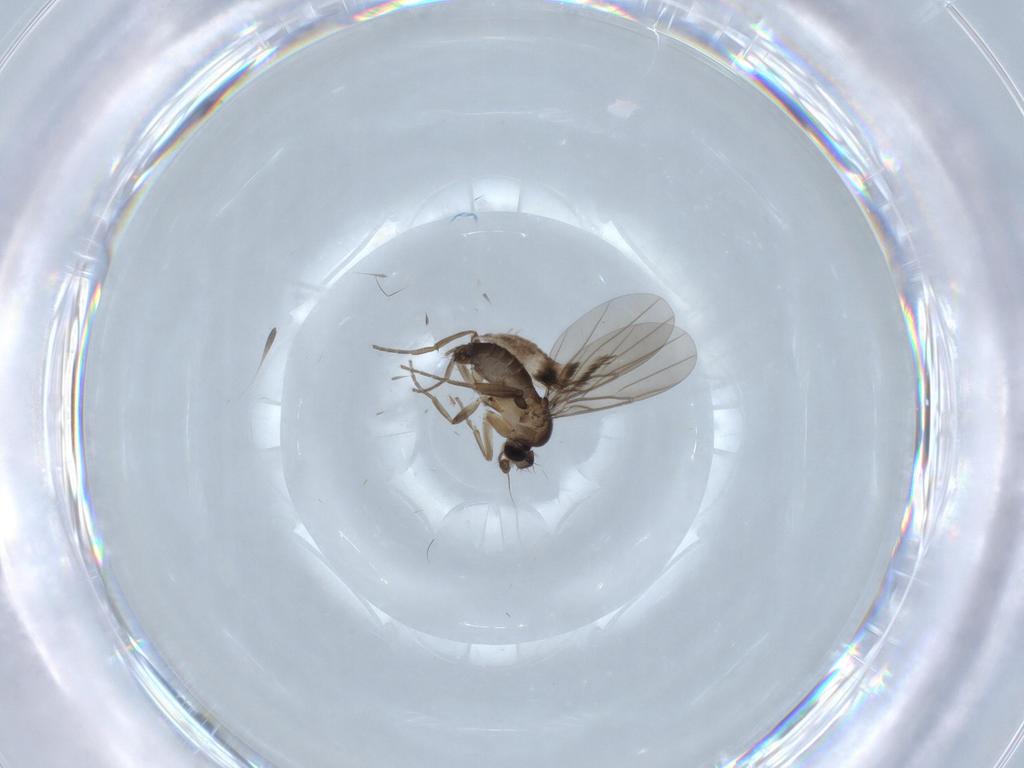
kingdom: Animalia
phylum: Arthropoda
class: Insecta
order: Diptera
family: Phoridae
